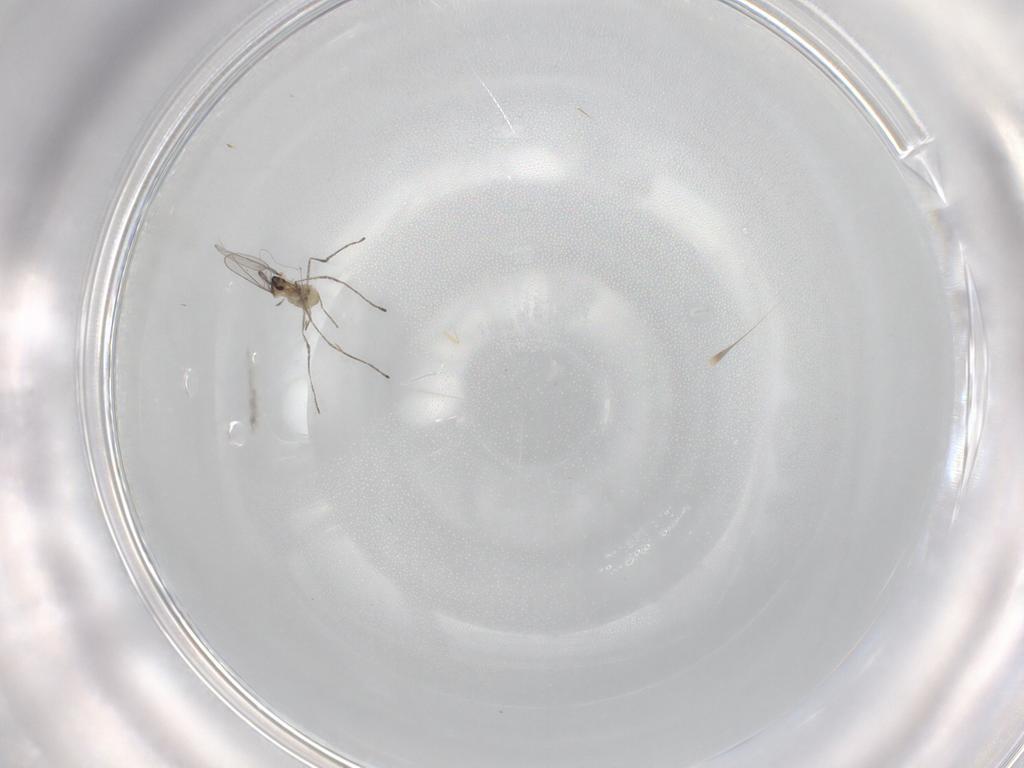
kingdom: Animalia
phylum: Arthropoda
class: Insecta
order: Diptera
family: Cecidomyiidae
